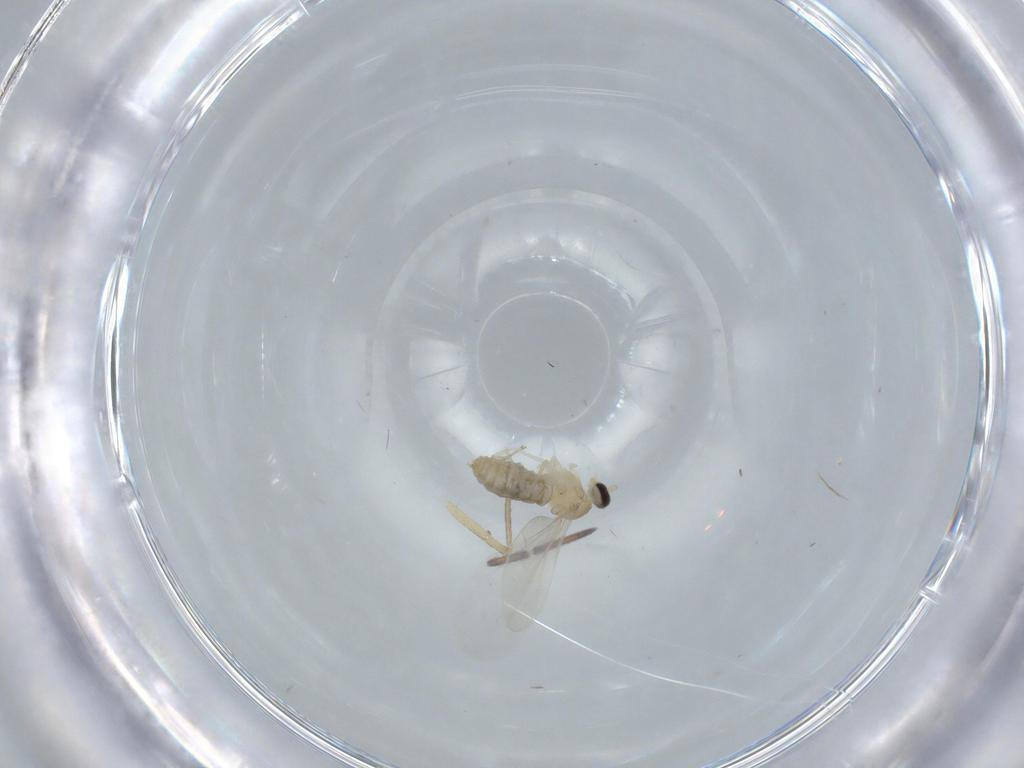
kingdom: Animalia
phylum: Arthropoda
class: Insecta
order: Diptera
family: Cecidomyiidae
